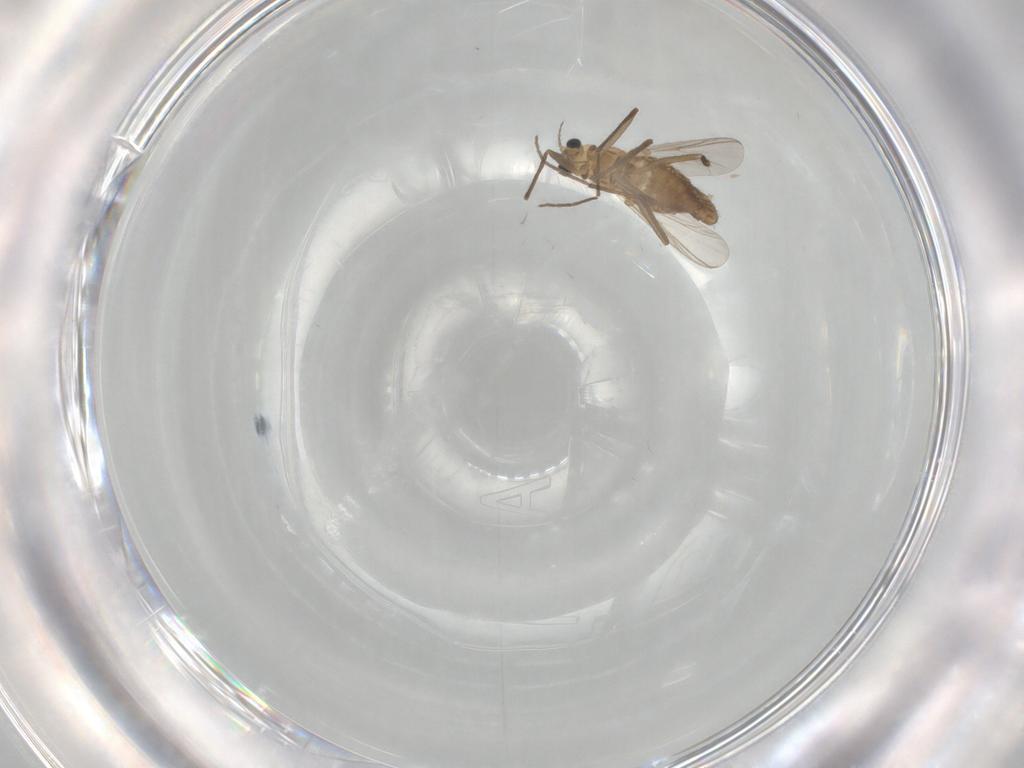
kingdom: Animalia
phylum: Arthropoda
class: Insecta
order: Diptera
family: Chironomidae
